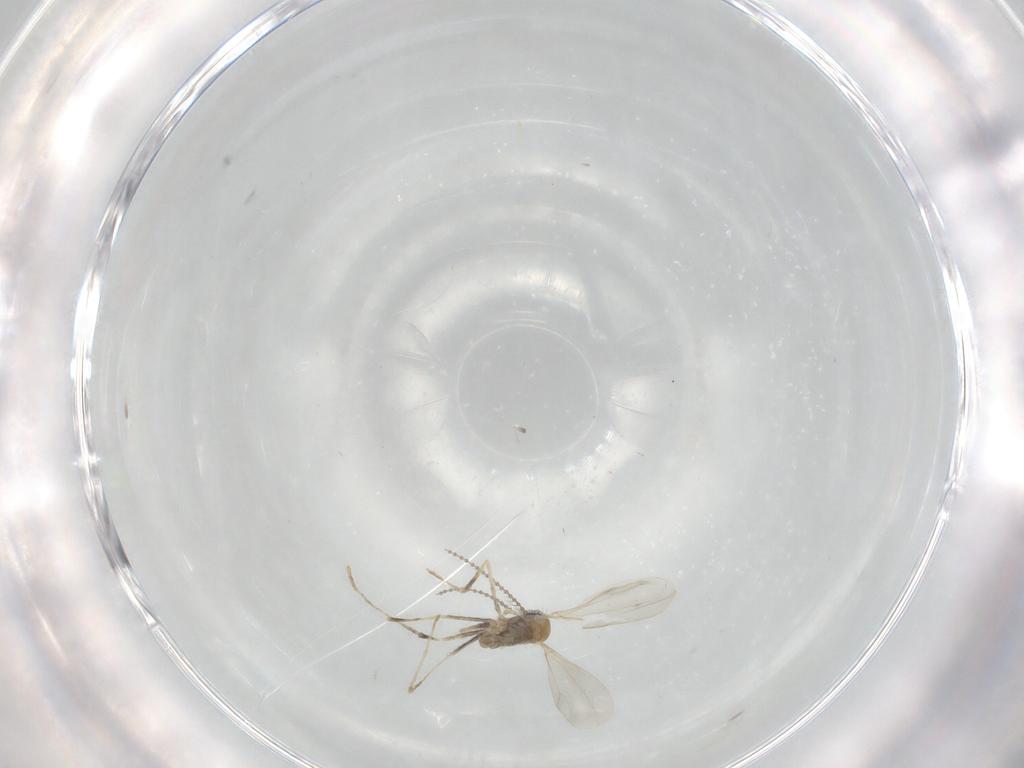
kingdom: Animalia
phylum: Arthropoda
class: Insecta
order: Diptera
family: Cecidomyiidae
